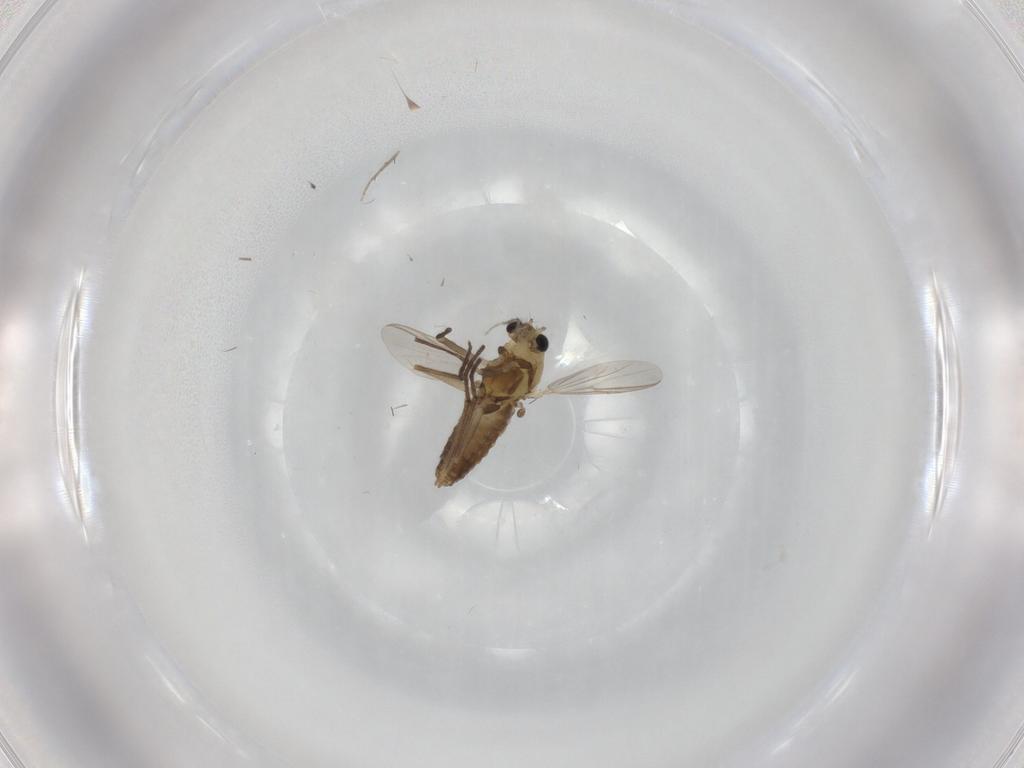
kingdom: Animalia
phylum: Arthropoda
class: Insecta
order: Diptera
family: Chironomidae
